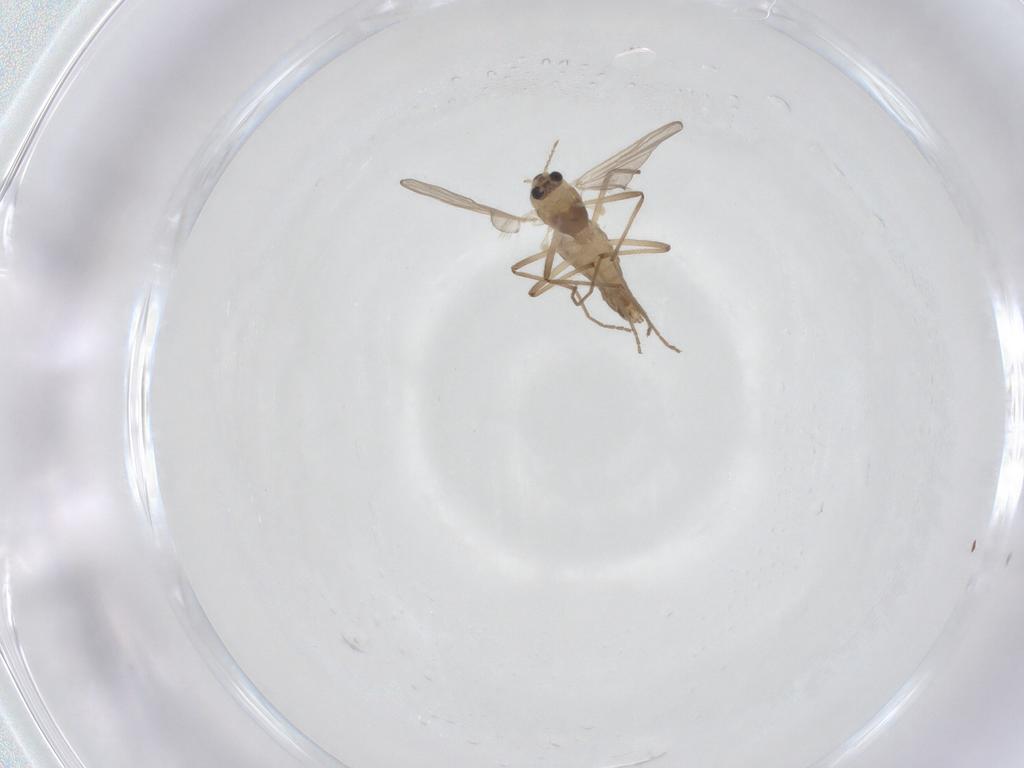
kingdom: Animalia
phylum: Arthropoda
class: Insecta
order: Diptera
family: Chironomidae
